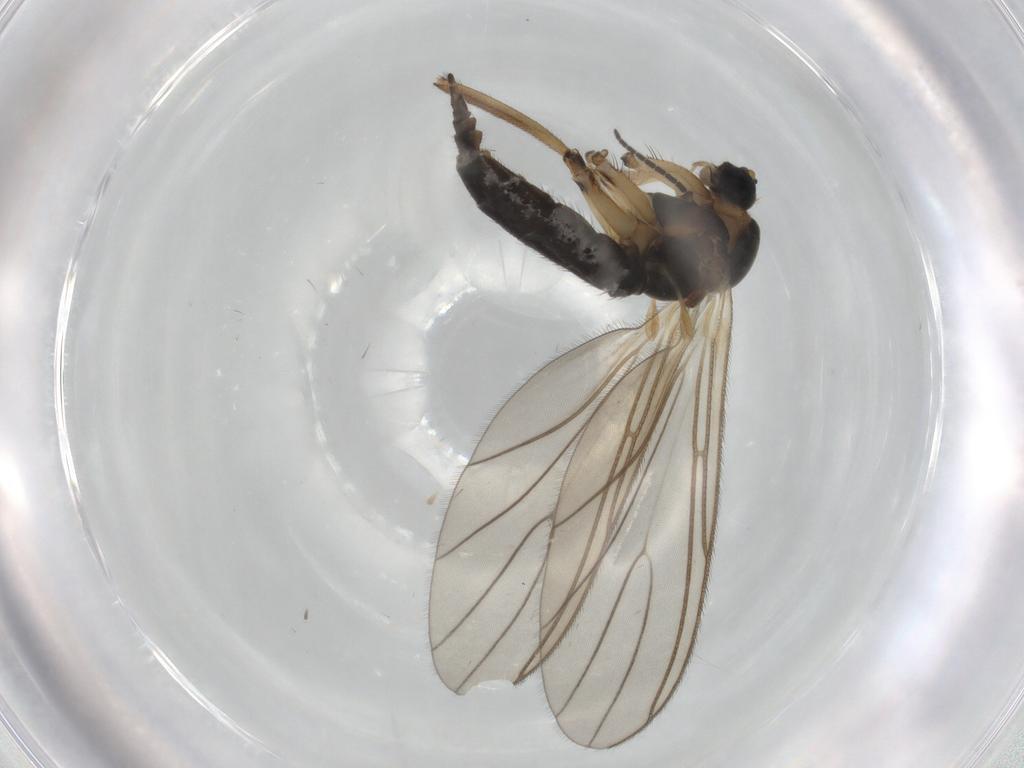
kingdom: Animalia
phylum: Arthropoda
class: Insecta
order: Diptera
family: Sciaridae
